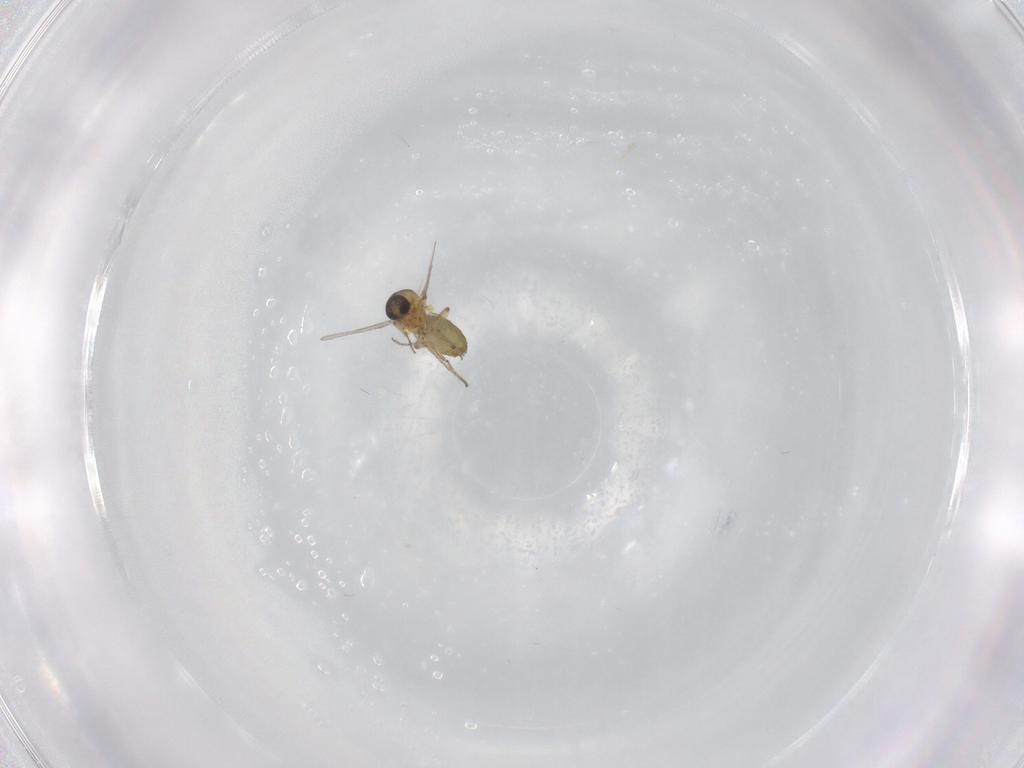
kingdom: Animalia
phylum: Arthropoda
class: Insecta
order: Diptera
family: Ceratopogonidae
